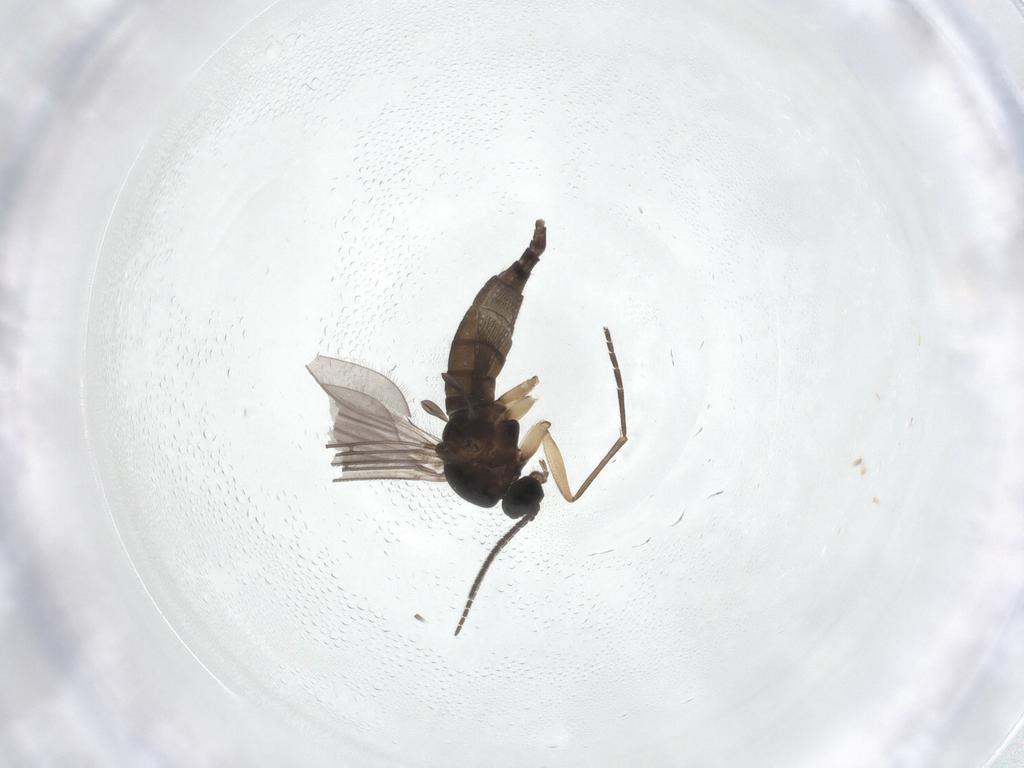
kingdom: Animalia
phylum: Arthropoda
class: Insecta
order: Diptera
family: Sciaridae
